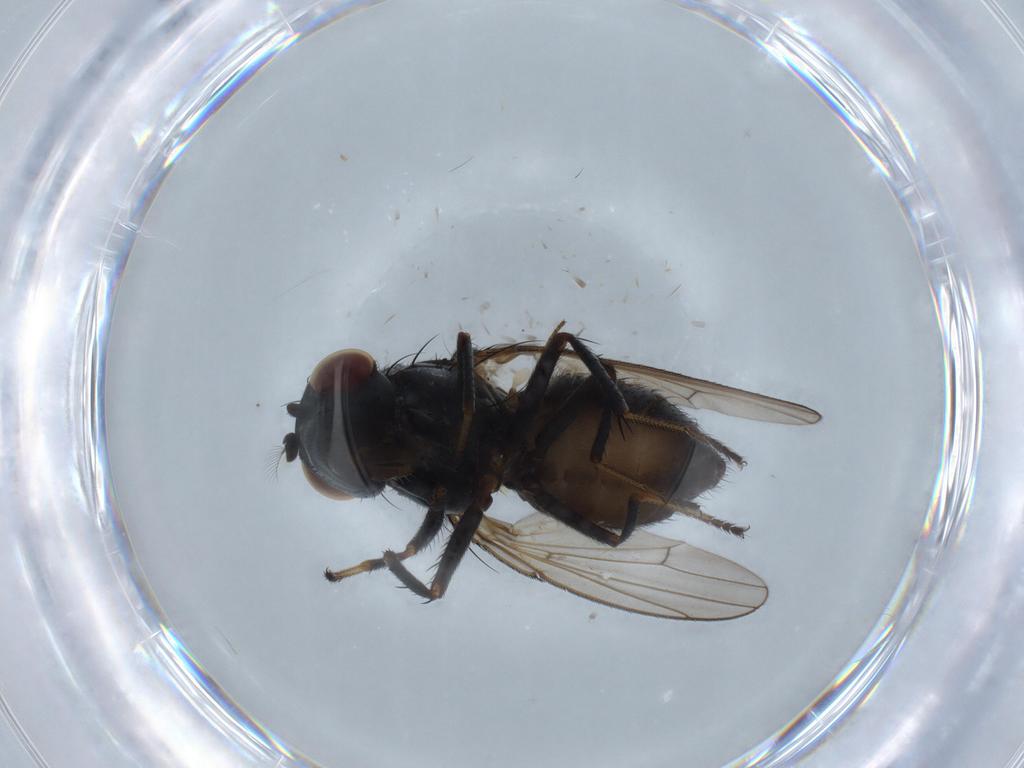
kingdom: Animalia
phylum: Arthropoda
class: Insecta
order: Diptera
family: Ephydridae
